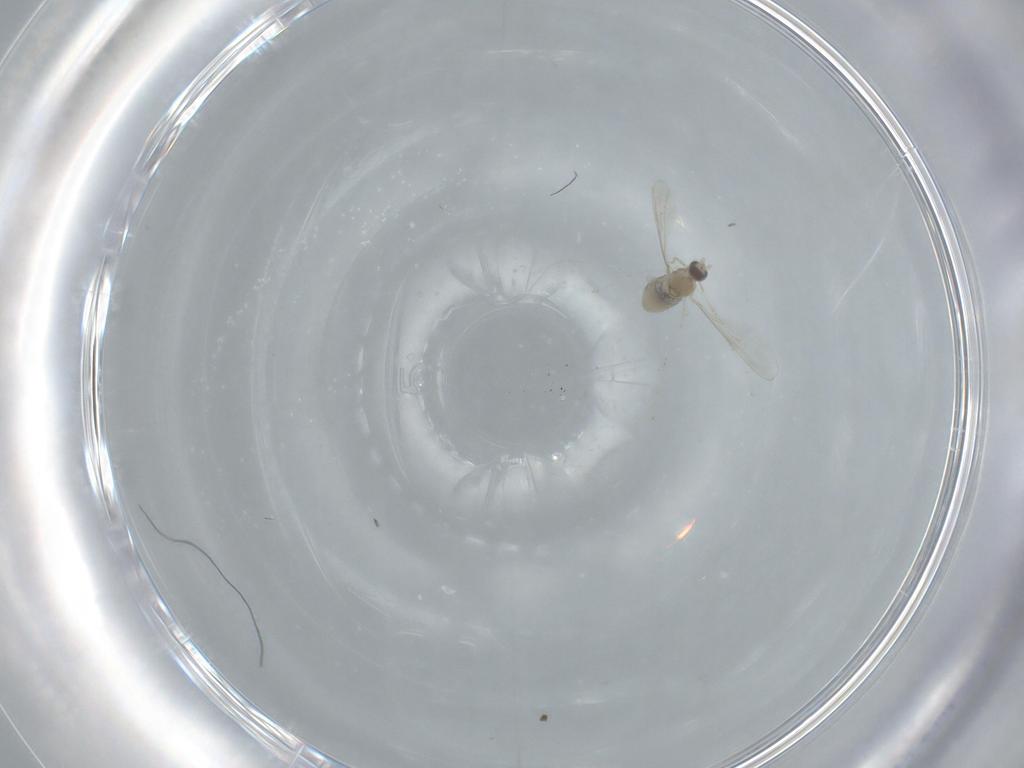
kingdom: Animalia
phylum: Arthropoda
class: Insecta
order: Diptera
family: Cecidomyiidae
